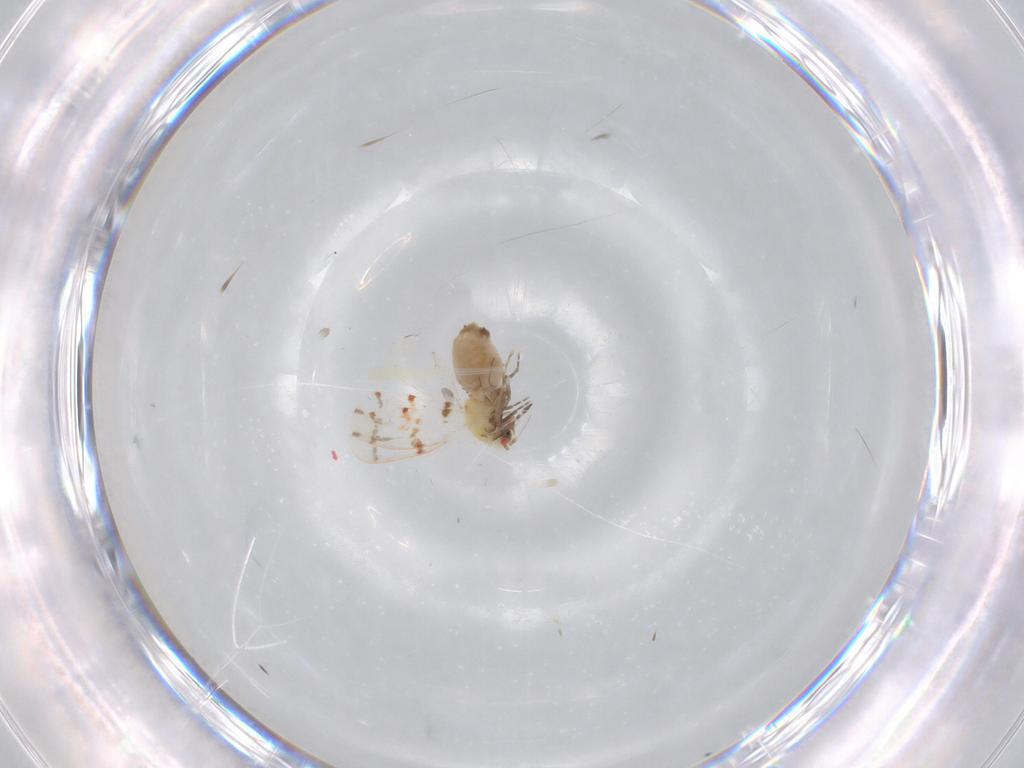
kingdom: Animalia
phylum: Arthropoda
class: Insecta
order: Hemiptera
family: Aleyrodidae
